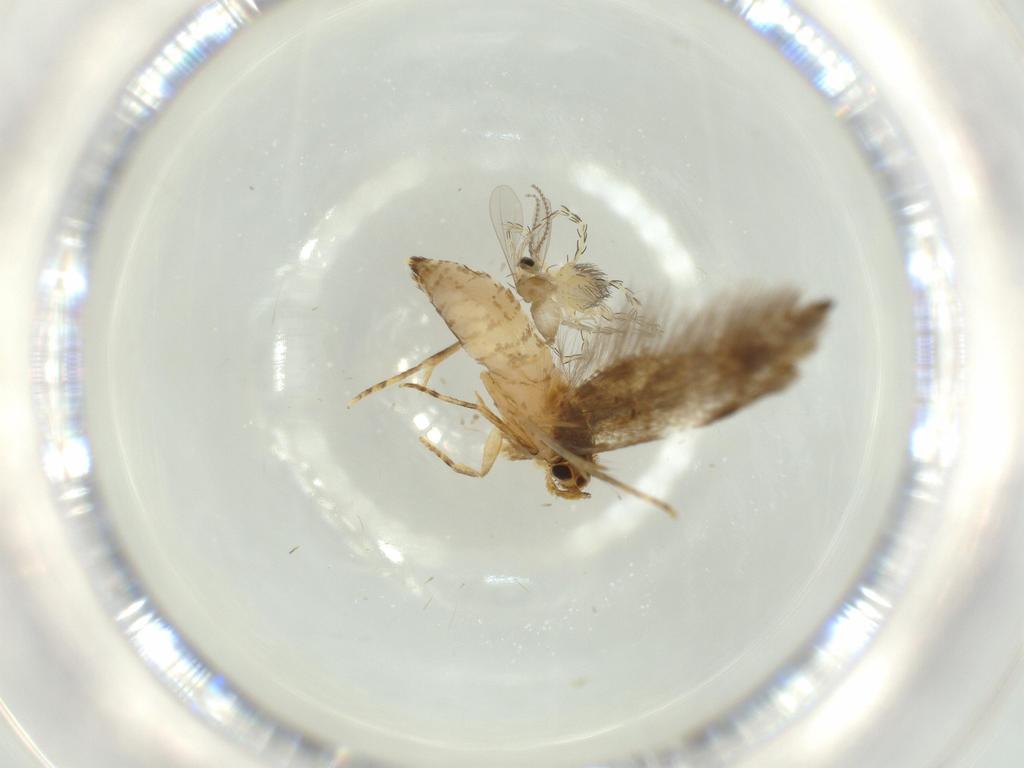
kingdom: Animalia
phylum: Arthropoda
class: Insecta
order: Lepidoptera
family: Tineidae
